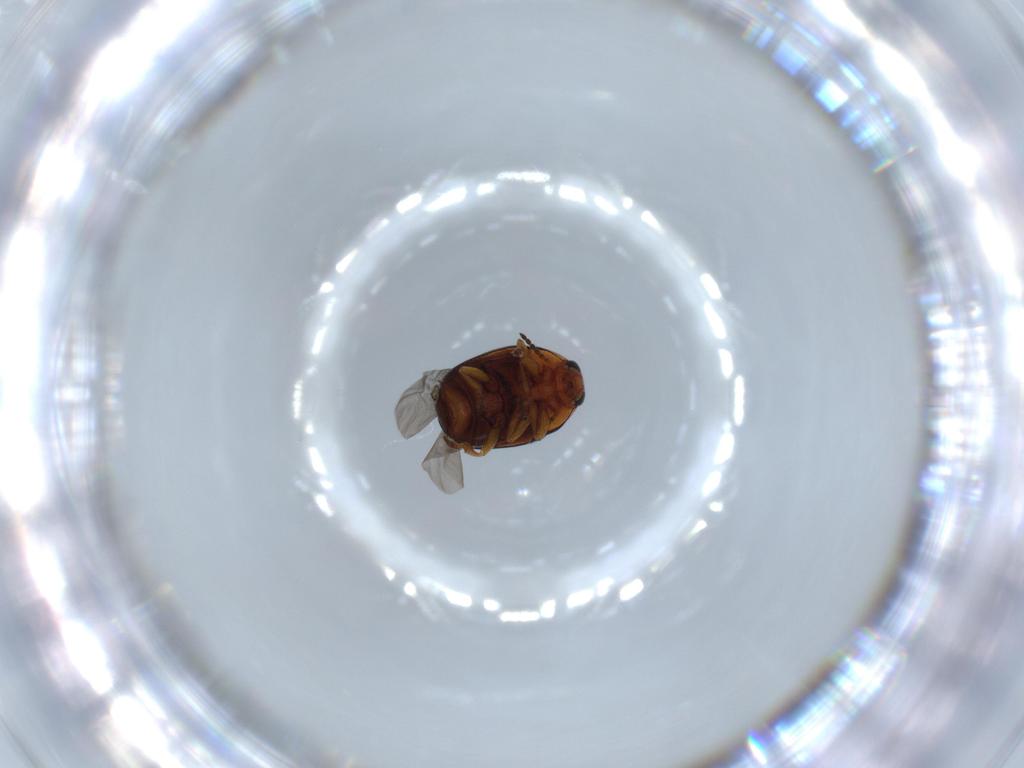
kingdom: Animalia
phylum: Arthropoda
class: Insecta
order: Coleoptera
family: Chrysomelidae
